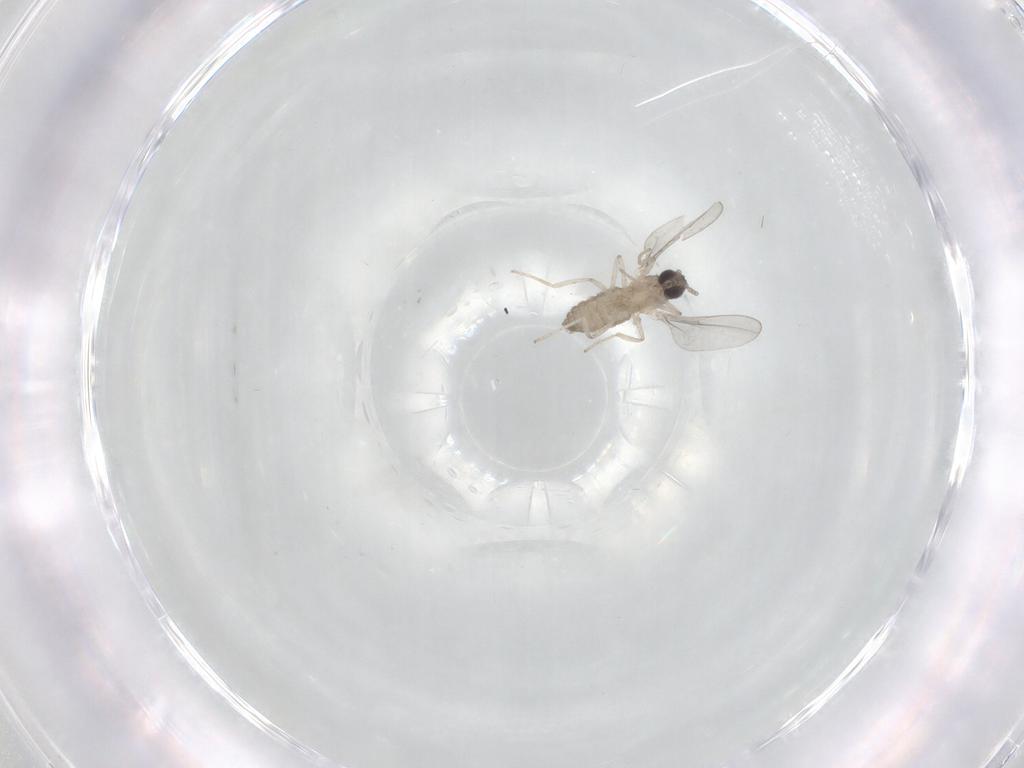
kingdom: Animalia
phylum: Arthropoda
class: Insecta
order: Diptera
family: Cecidomyiidae
